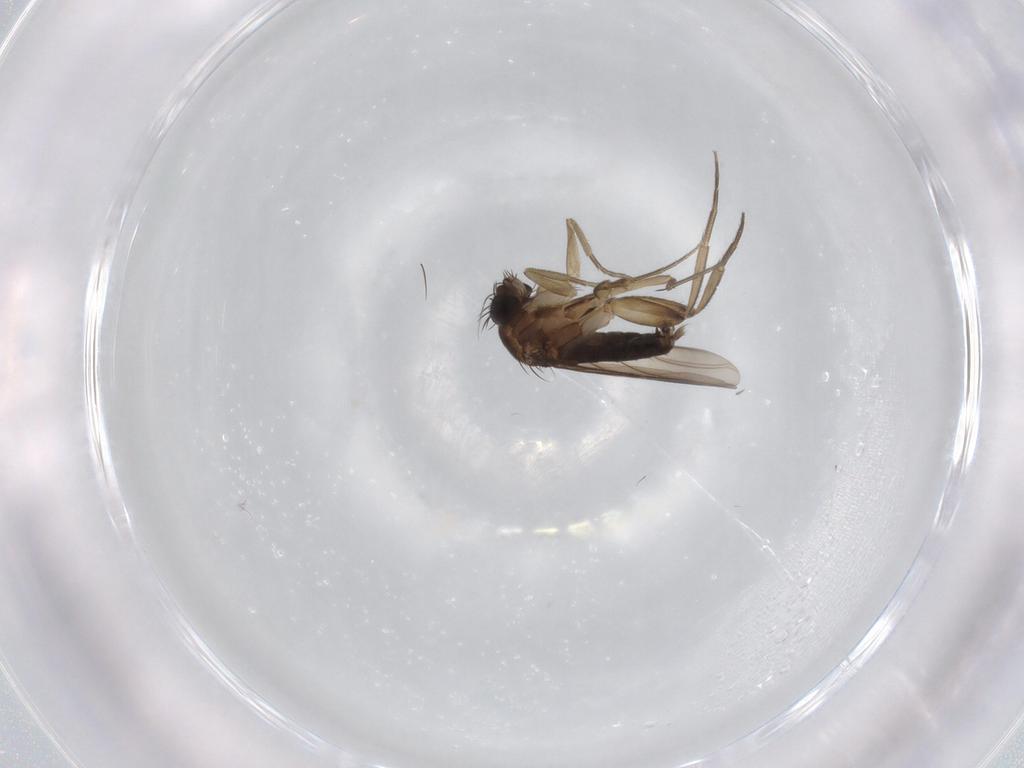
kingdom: Animalia
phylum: Arthropoda
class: Insecta
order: Diptera
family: Phoridae
